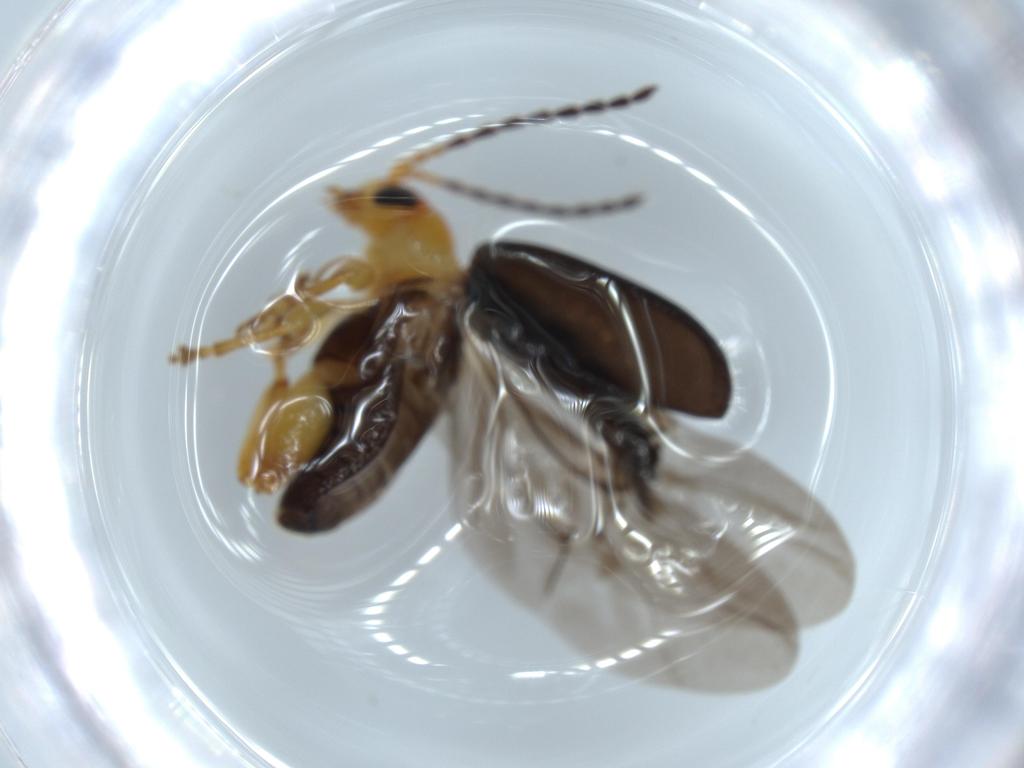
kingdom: Animalia
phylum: Arthropoda
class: Insecta
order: Coleoptera
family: Chrysomelidae
